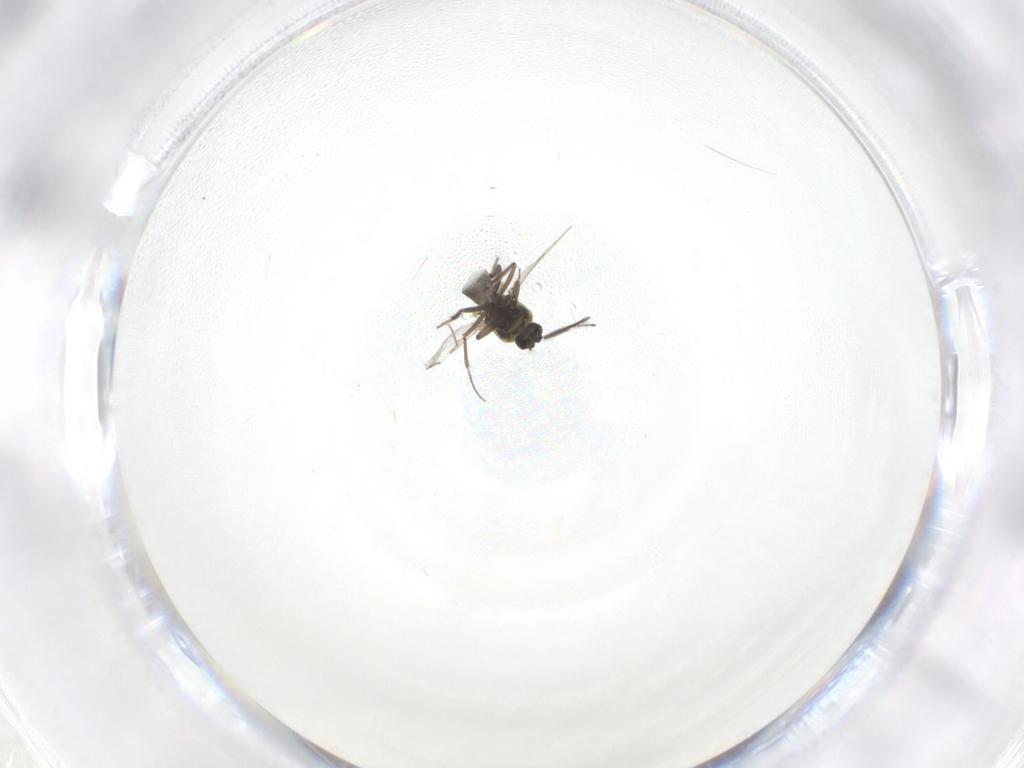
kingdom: Animalia
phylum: Arthropoda
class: Insecta
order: Diptera
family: Ceratopogonidae
